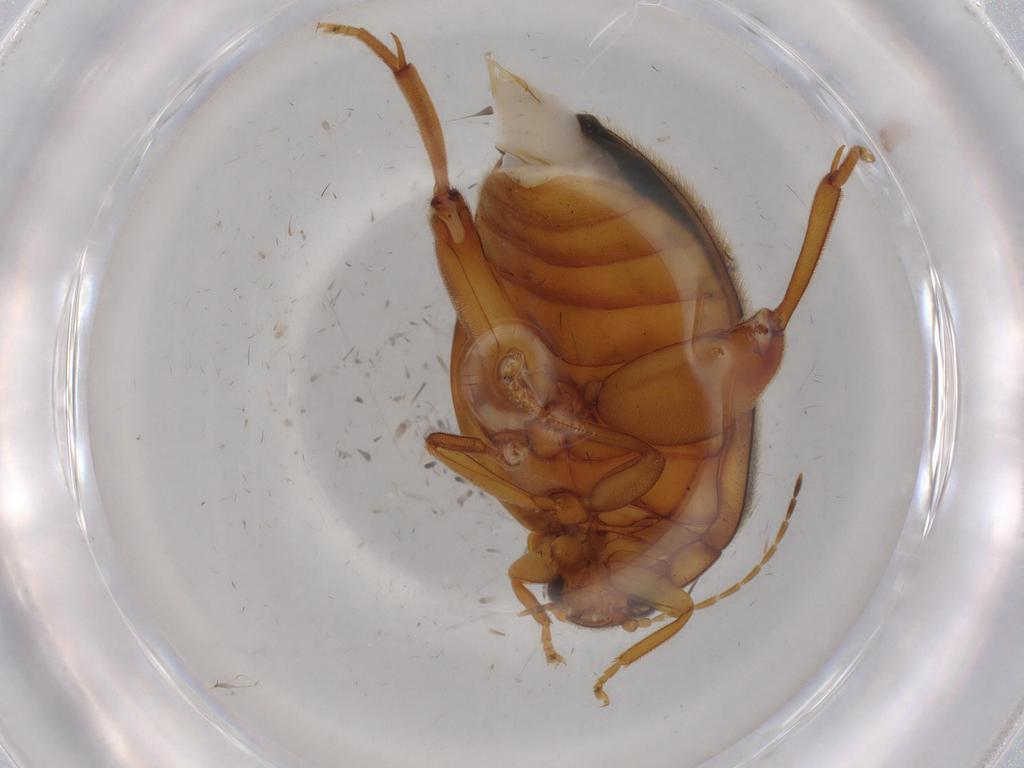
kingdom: Animalia
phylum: Arthropoda
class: Insecta
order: Coleoptera
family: Scirtidae
